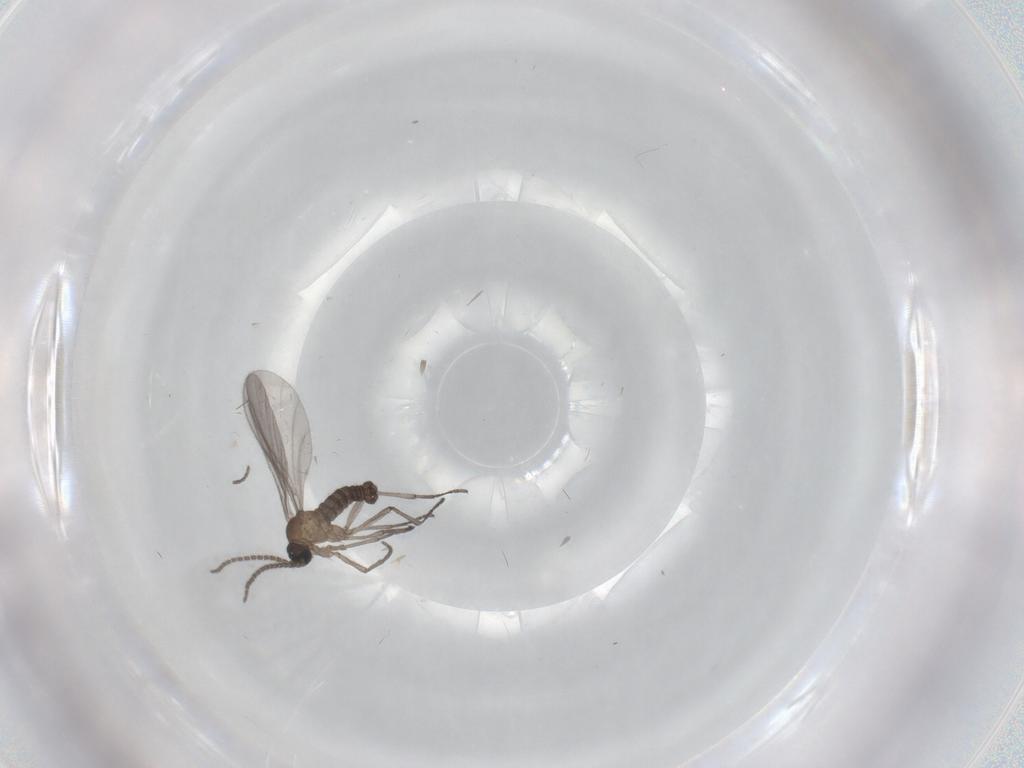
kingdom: Animalia
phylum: Arthropoda
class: Insecta
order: Diptera
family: Sciaridae
